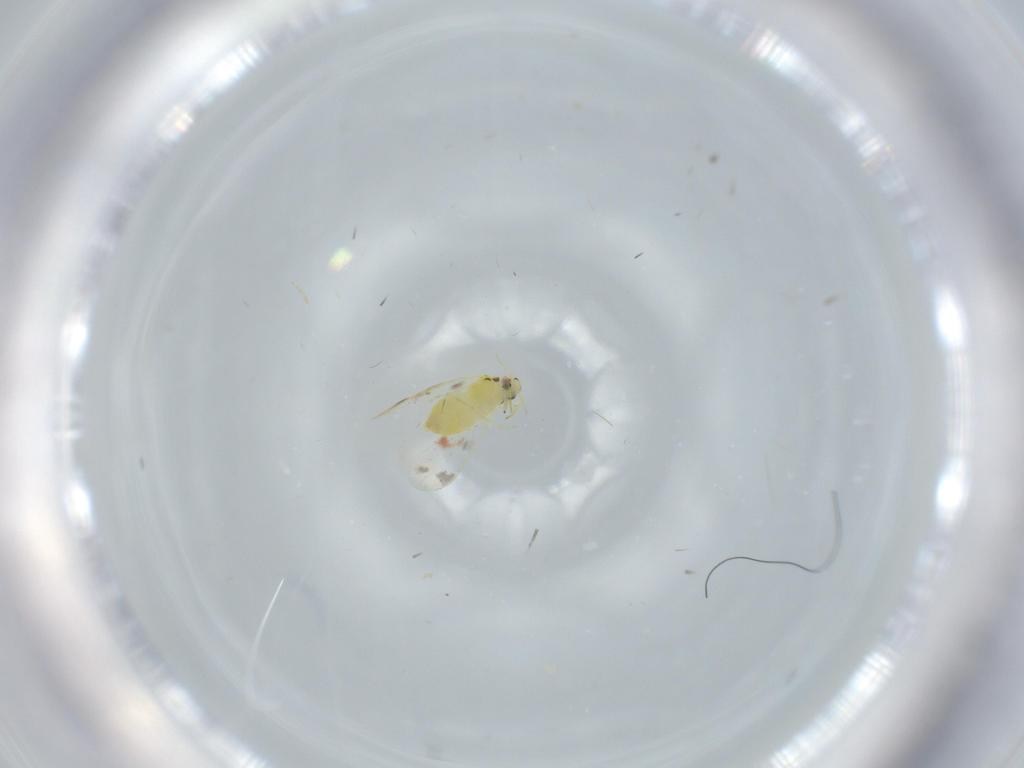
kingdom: Animalia
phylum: Arthropoda
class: Insecta
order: Hemiptera
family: Aleyrodidae
